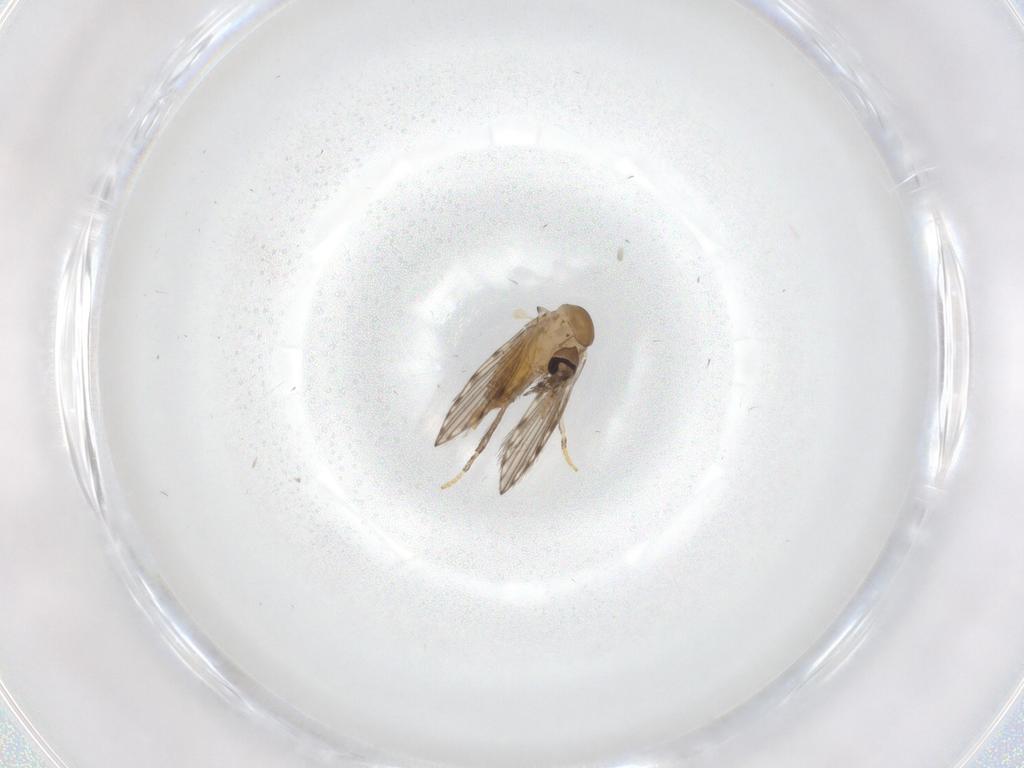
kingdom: Animalia
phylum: Arthropoda
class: Insecta
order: Diptera
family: Psychodidae
